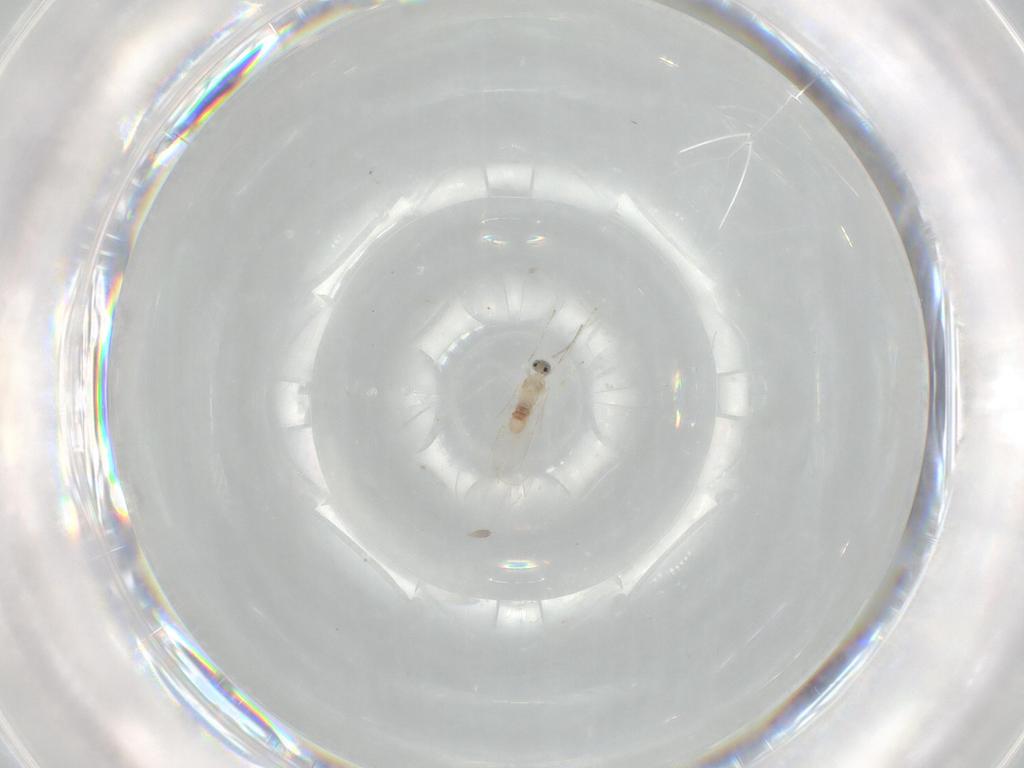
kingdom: Animalia
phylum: Arthropoda
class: Insecta
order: Diptera
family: Cecidomyiidae
